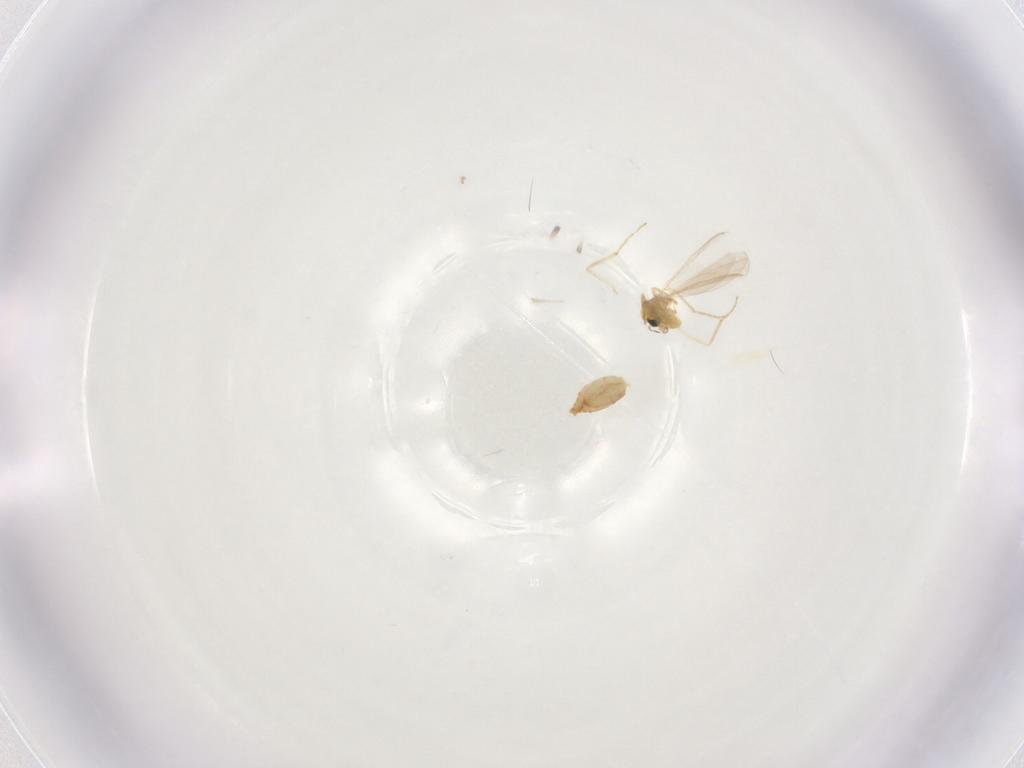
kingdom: Animalia
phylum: Arthropoda
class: Insecta
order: Diptera
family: Chironomidae
